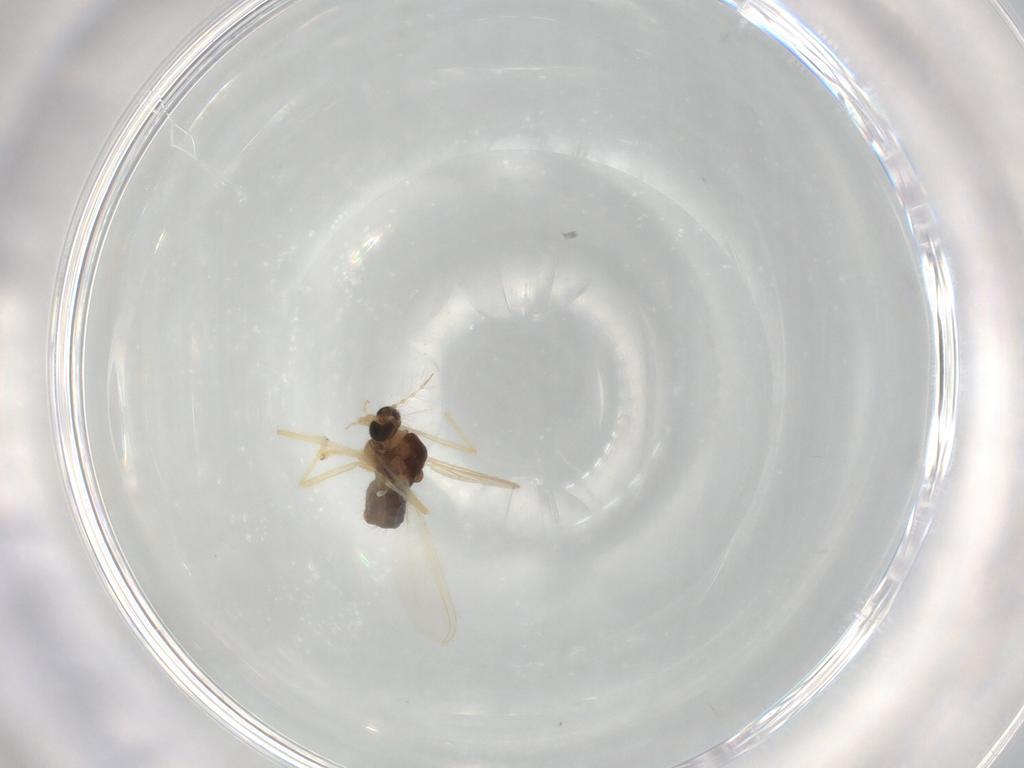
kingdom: Animalia
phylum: Arthropoda
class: Insecta
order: Diptera
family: Chironomidae
